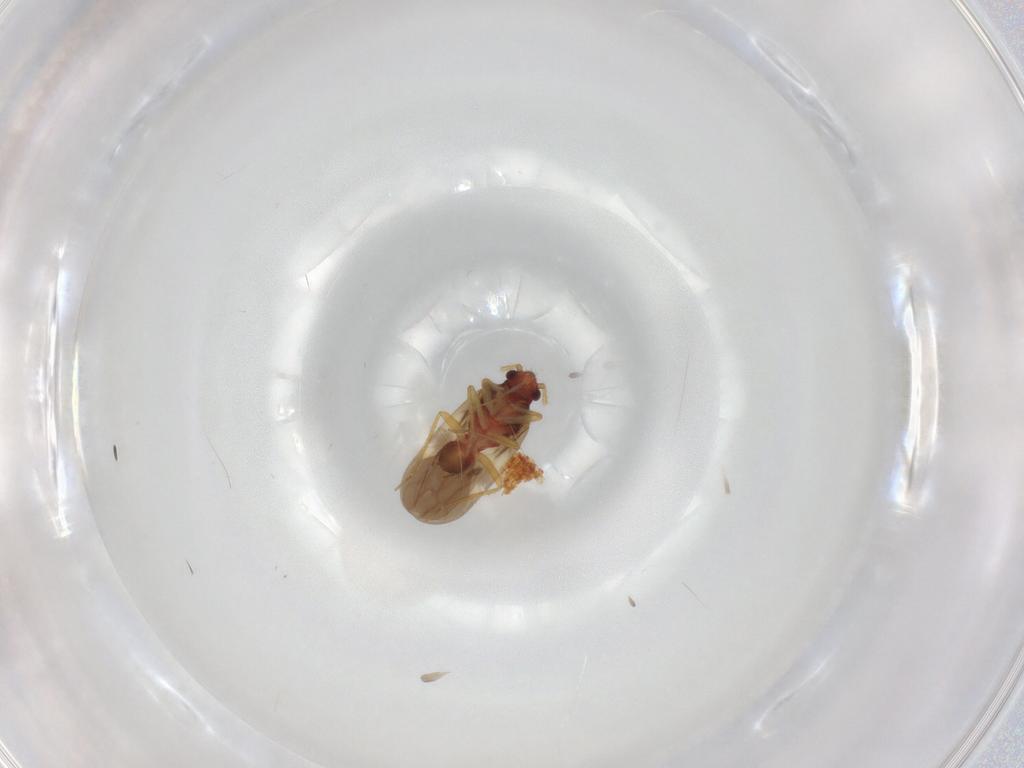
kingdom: Animalia
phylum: Arthropoda
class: Insecta
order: Hemiptera
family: Ceratocombidae
